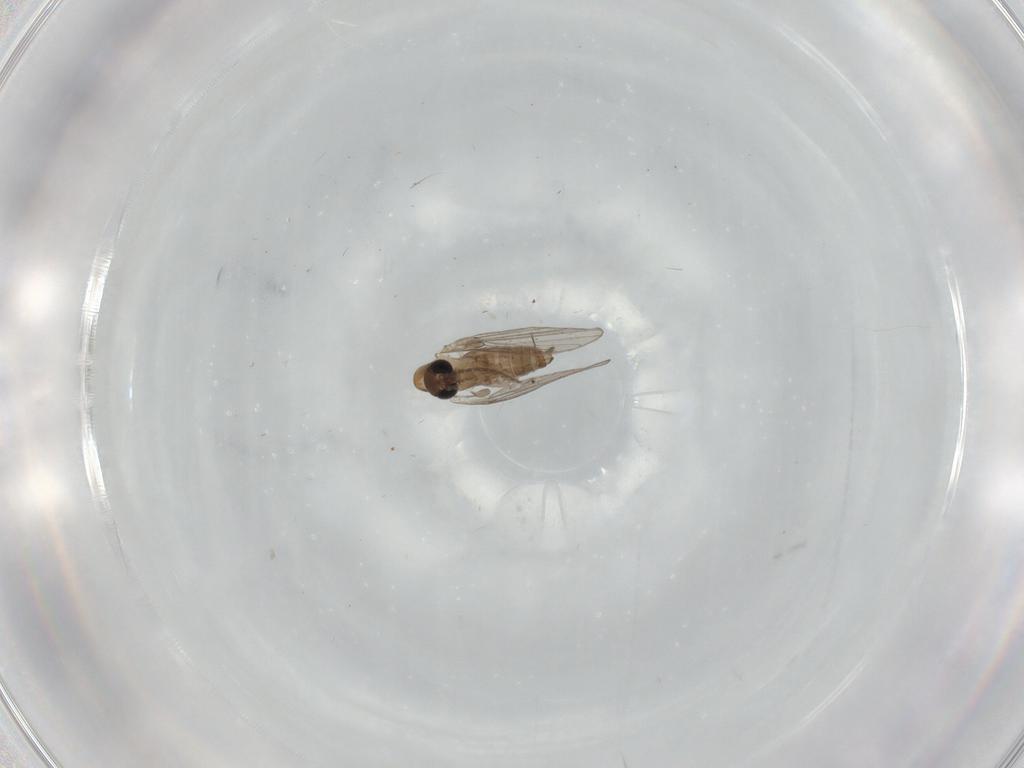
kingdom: Animalia
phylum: Arthropoda
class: Insecta
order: Diptera
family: Psychodidae
